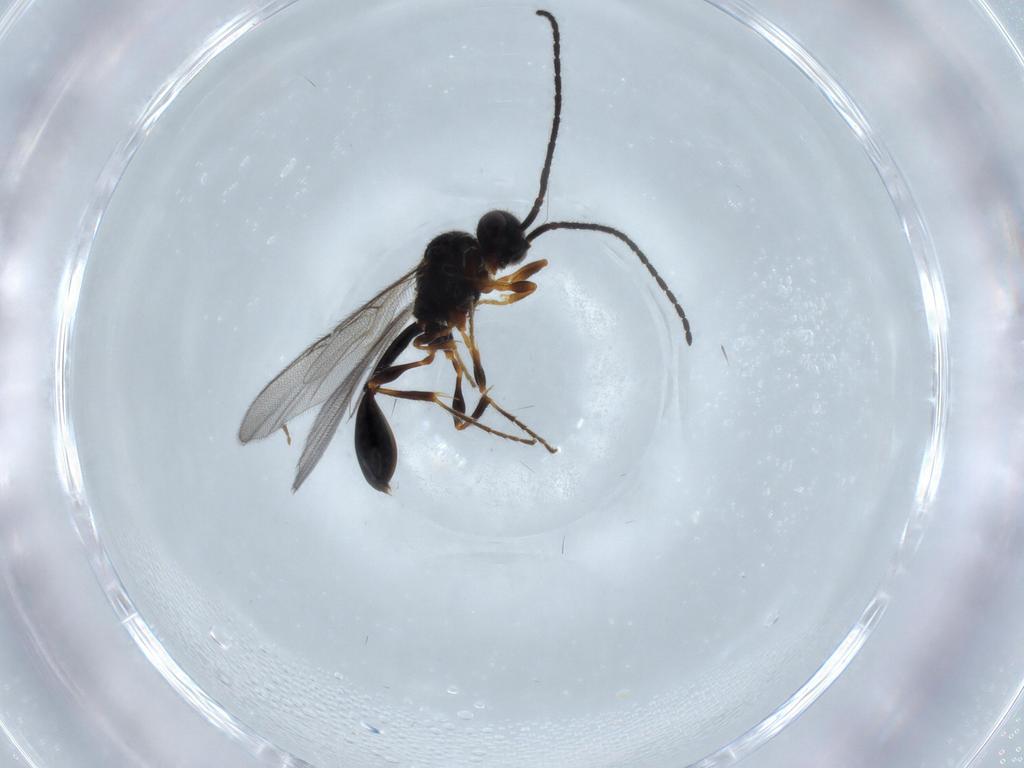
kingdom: Animalia
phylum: Arthropoda
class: Insecta
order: Hymenoptera
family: Diapriidae
